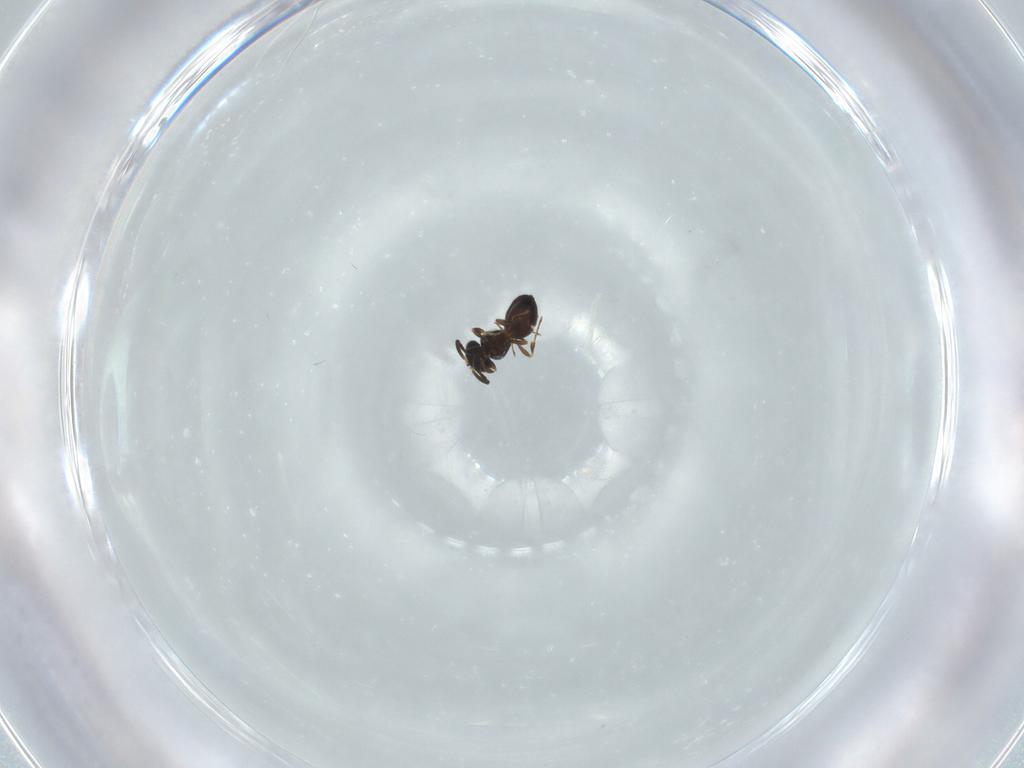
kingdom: Animalia
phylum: Arthropoda
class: Insecta
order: Hymenoptera
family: Scelionidae
